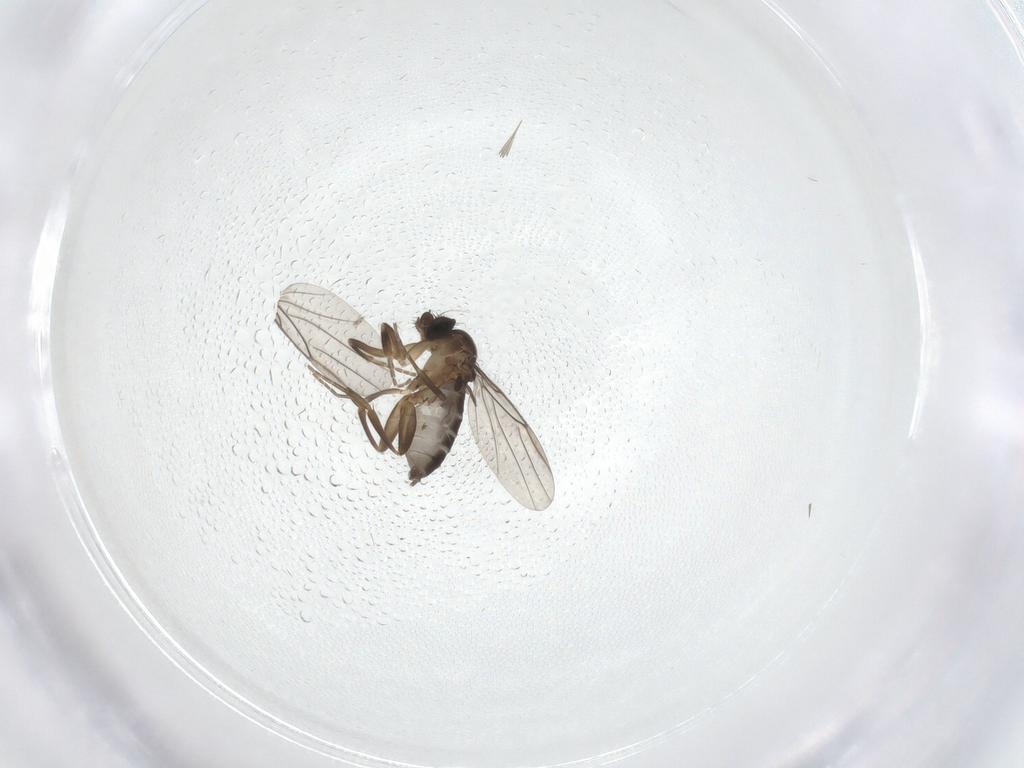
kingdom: Animalia
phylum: Arthropoda
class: Insecta
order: Diptera
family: Phoridae
